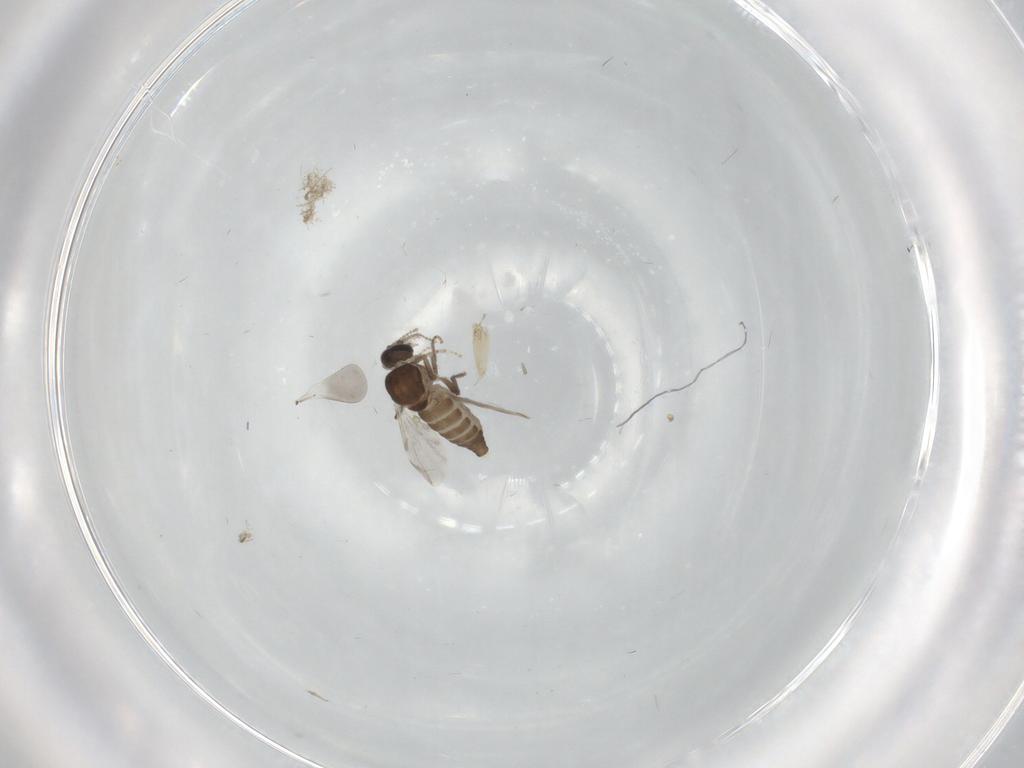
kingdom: Animalia
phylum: Arthropoda
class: Insecta
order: Diptera
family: Ceratopogonidae
